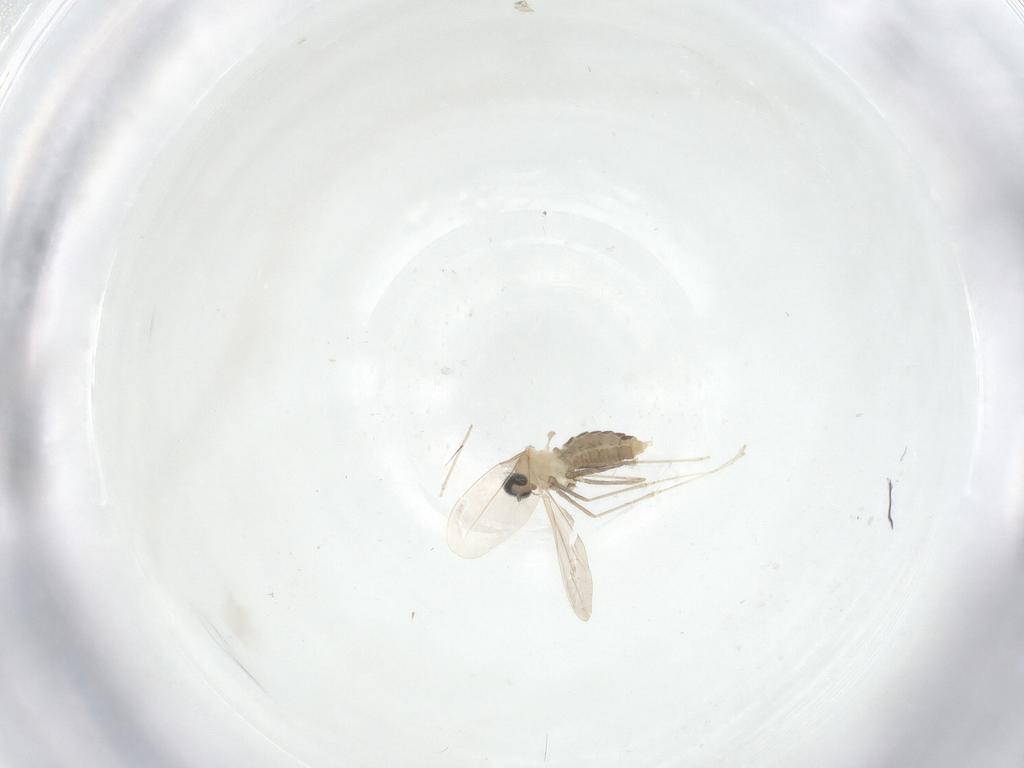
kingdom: Animalia
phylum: Arthropoda
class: Insecta
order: Diptera
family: Cecidomyiidae
